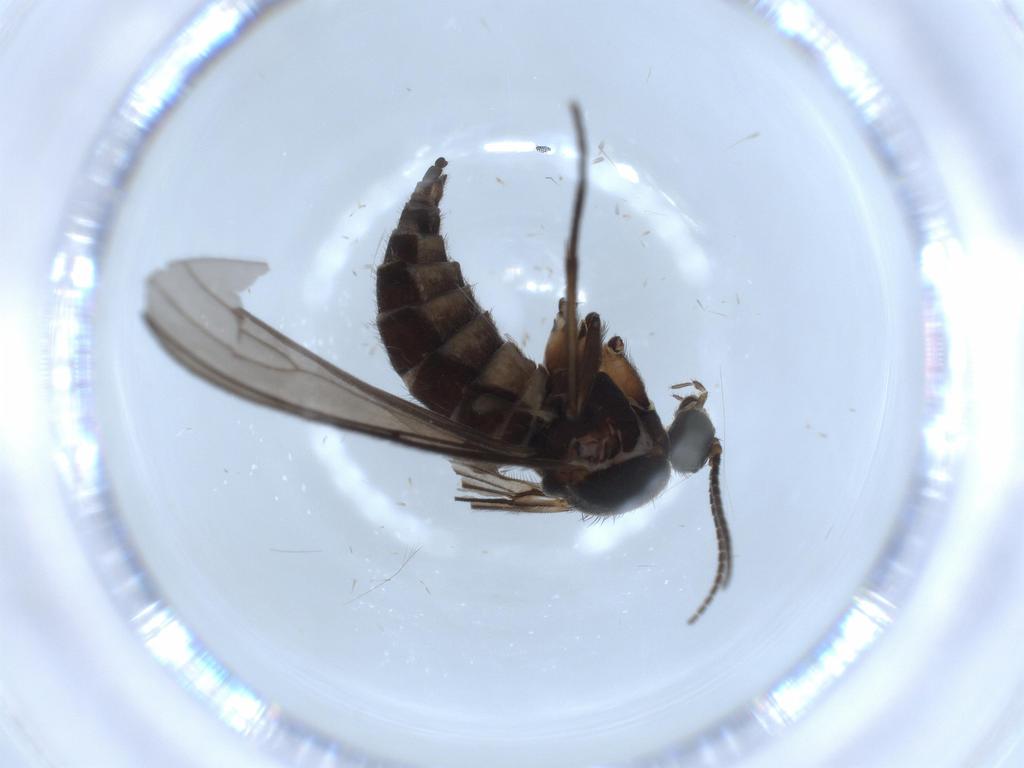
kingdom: Animalia
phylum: Arthropoda
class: Insecta
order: Diptera
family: Sciaridae
